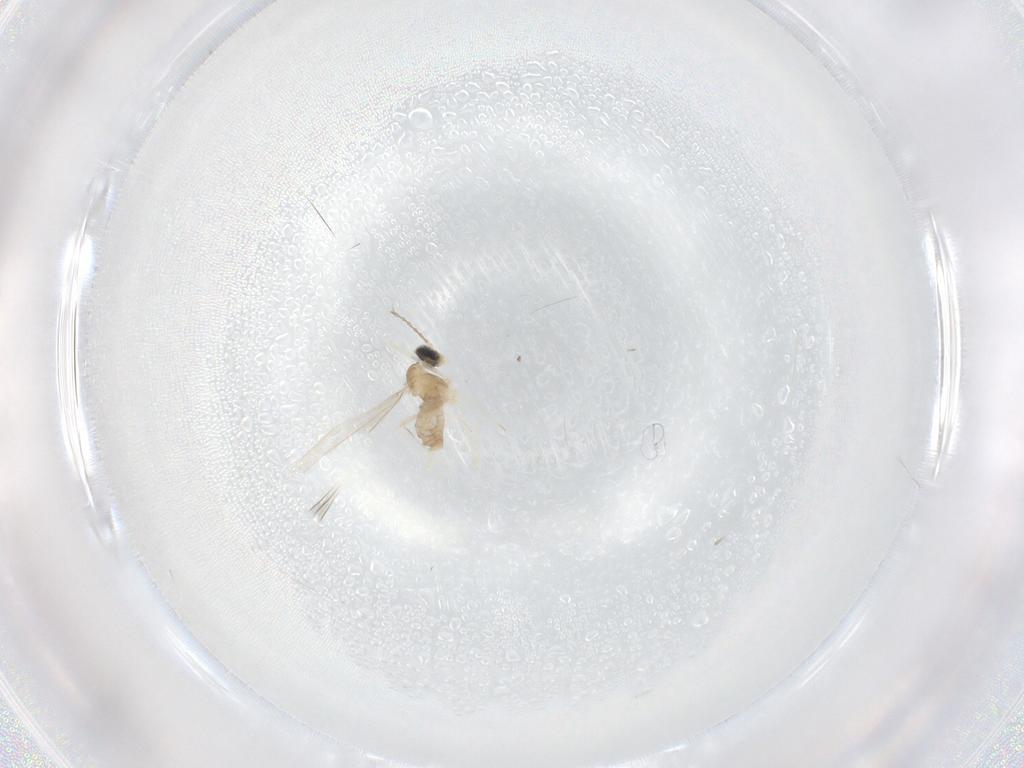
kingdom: Animalia
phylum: Arthropoda
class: Insecta
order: Diptera
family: Cecidomyiidae
